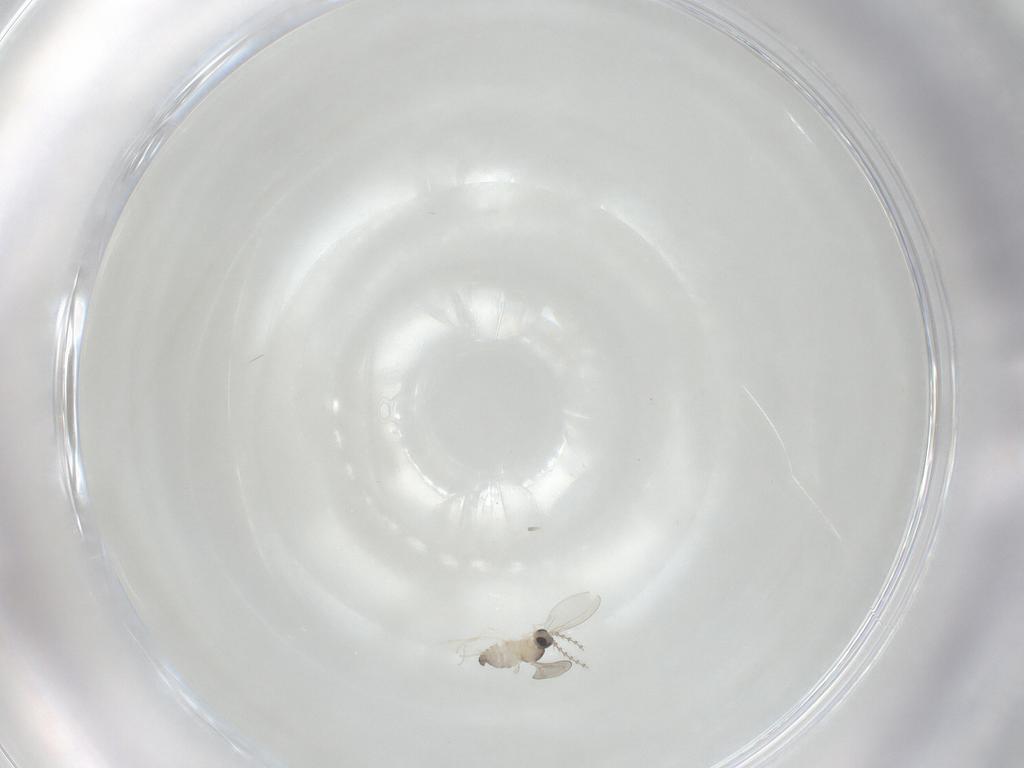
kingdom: Animalia
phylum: Arthropoda
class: Insecta
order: Diptera
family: Cecidomyiidae
